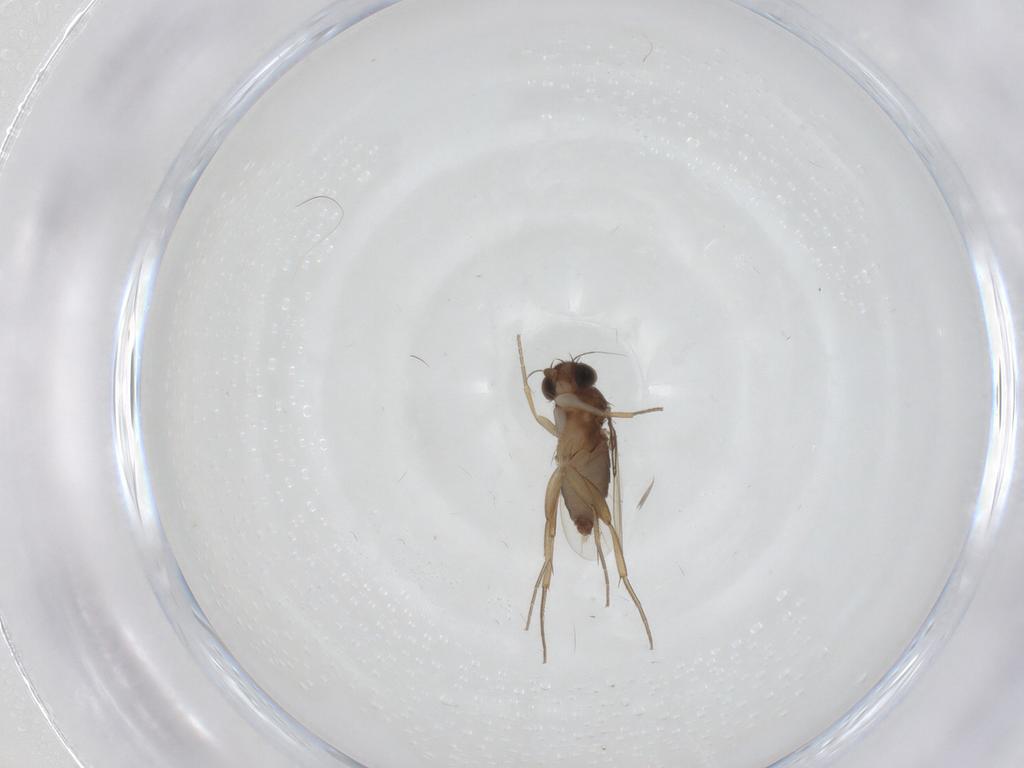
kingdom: Animalia
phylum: Arthropoda
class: Insecta
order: Diptera
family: Phoridae
